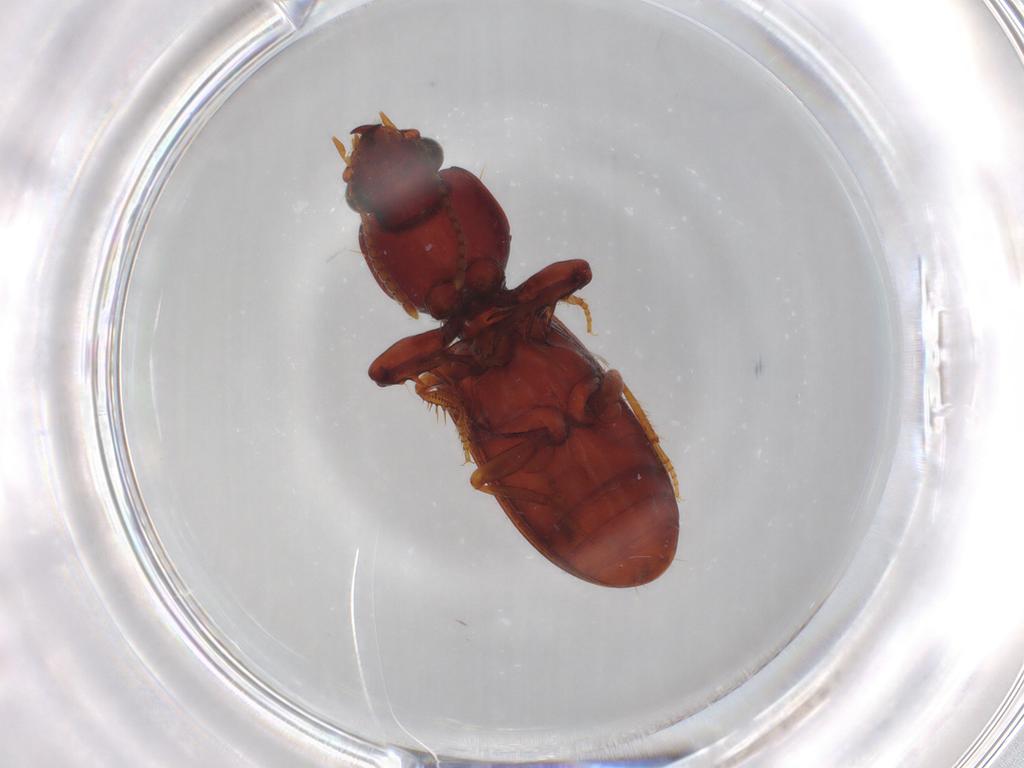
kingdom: Animalia
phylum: Arthropoda
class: Insecta
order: Coleoptera
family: Carabidae
